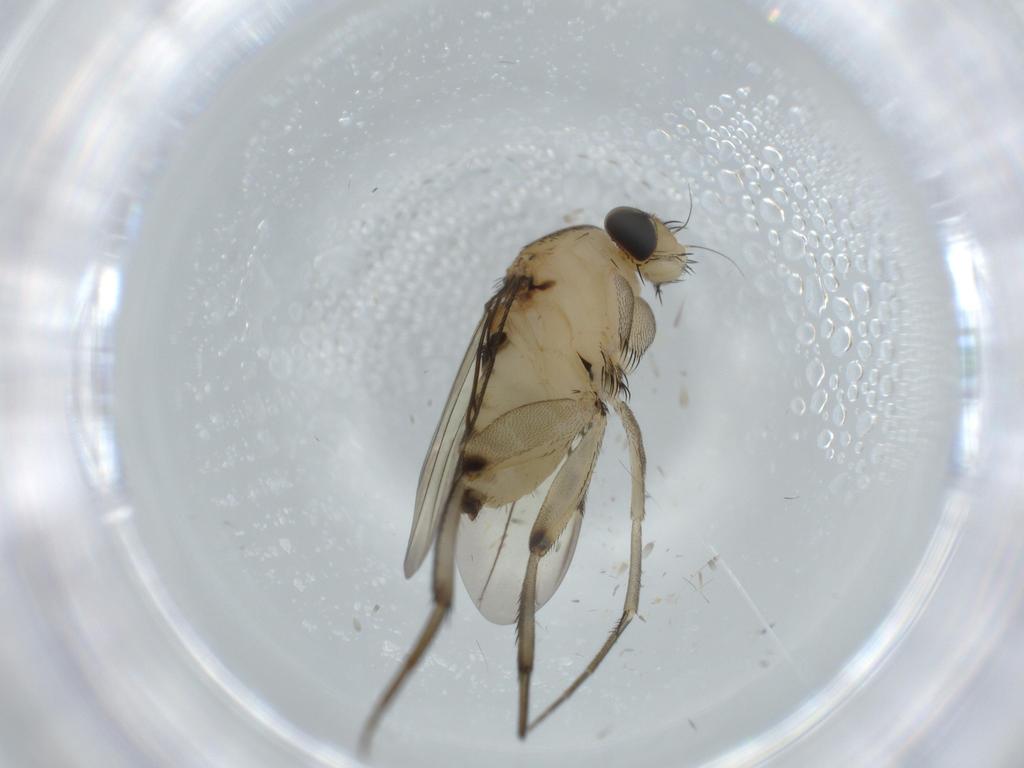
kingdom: Animalia
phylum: Arthropoda
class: Insecta
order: Diptera
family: Phoridae
